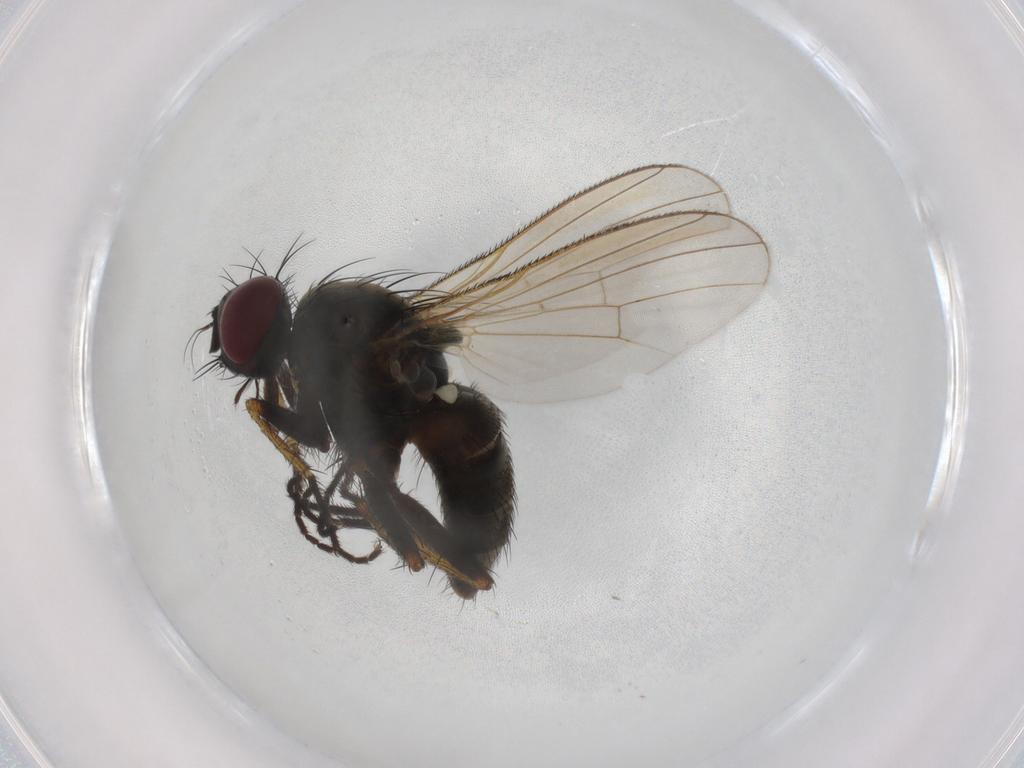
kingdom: Animalia
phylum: Arthropoda
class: Insecta
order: Diptera
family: Muscidae
